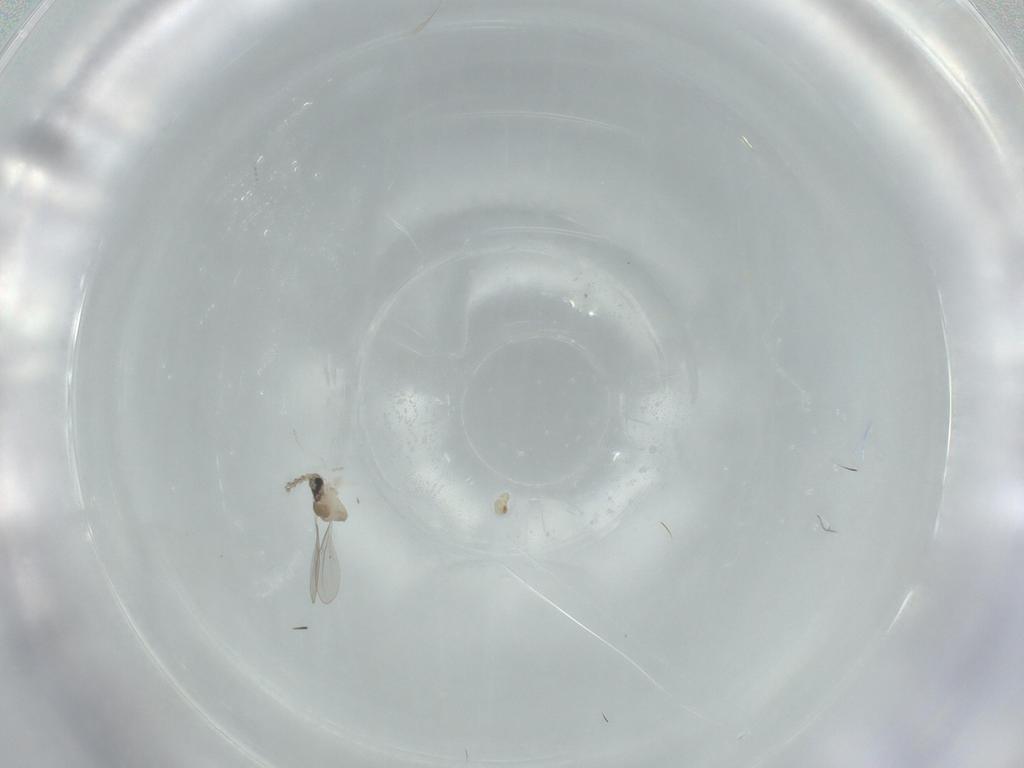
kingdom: Animalia
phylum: Arthropoda
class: Insecta
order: Diptera
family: Cecidomyiidae
